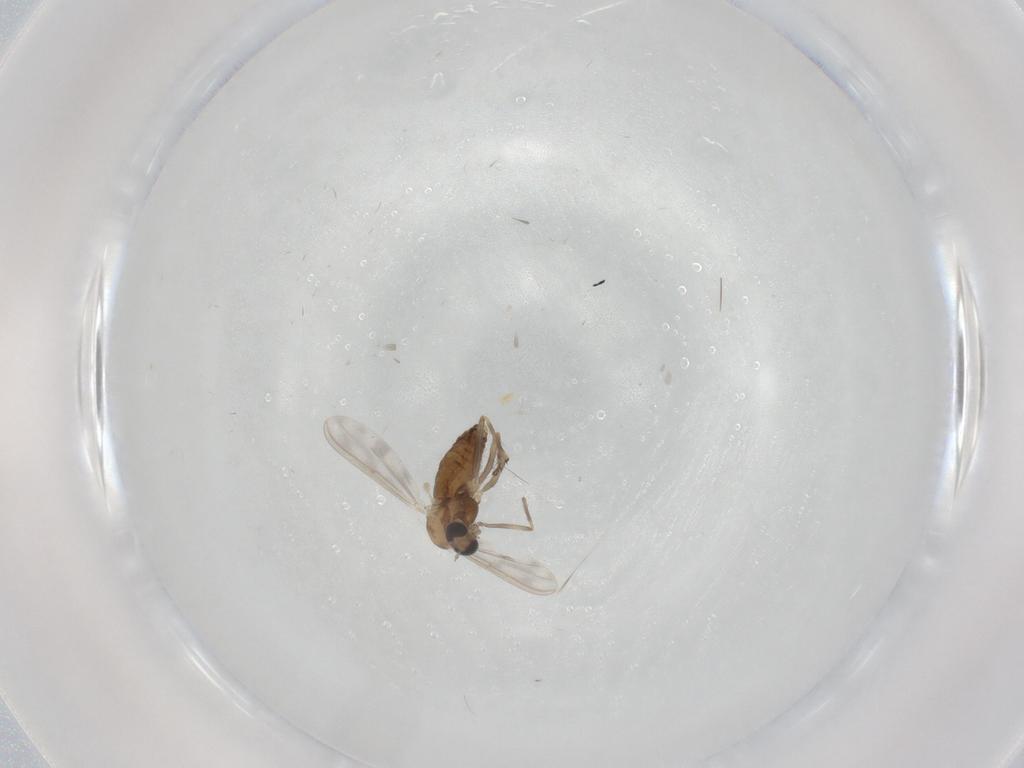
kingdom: Animalia
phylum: Arthropoda
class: Insecta
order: Diptera
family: Chironomidae
